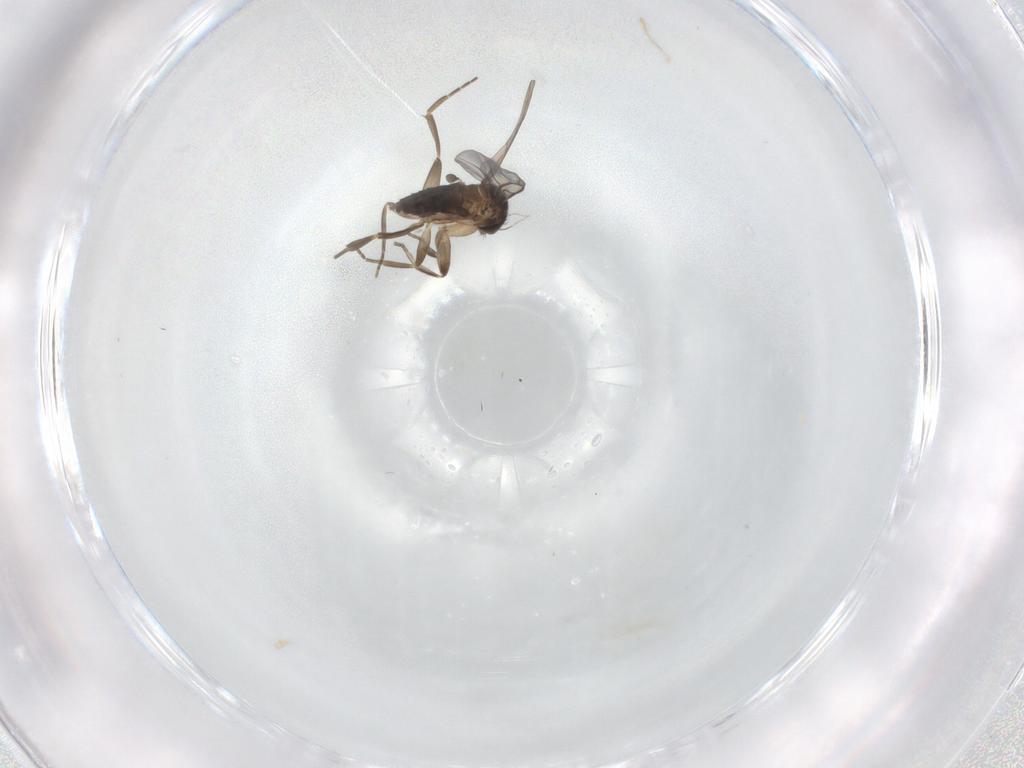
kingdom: Animalia
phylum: Arthropoda
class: Insecta
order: Diptera
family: Phoridae
